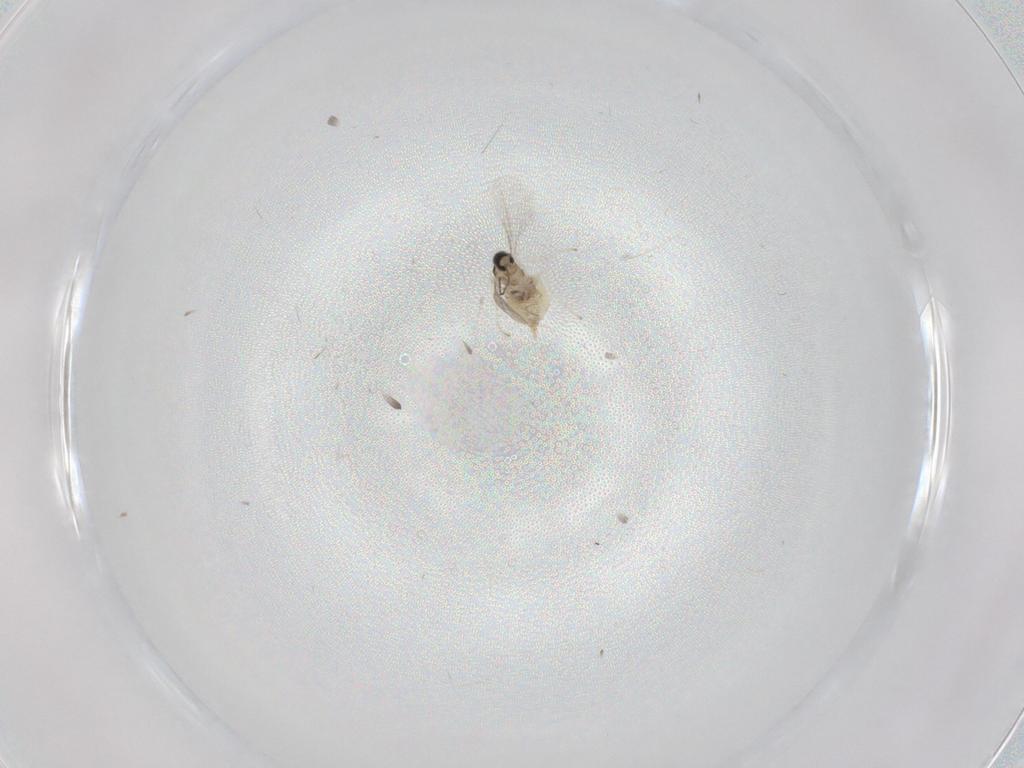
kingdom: Animalia
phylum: Arthropoda
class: Insecta
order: Diptera
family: Cecidomyiidae
